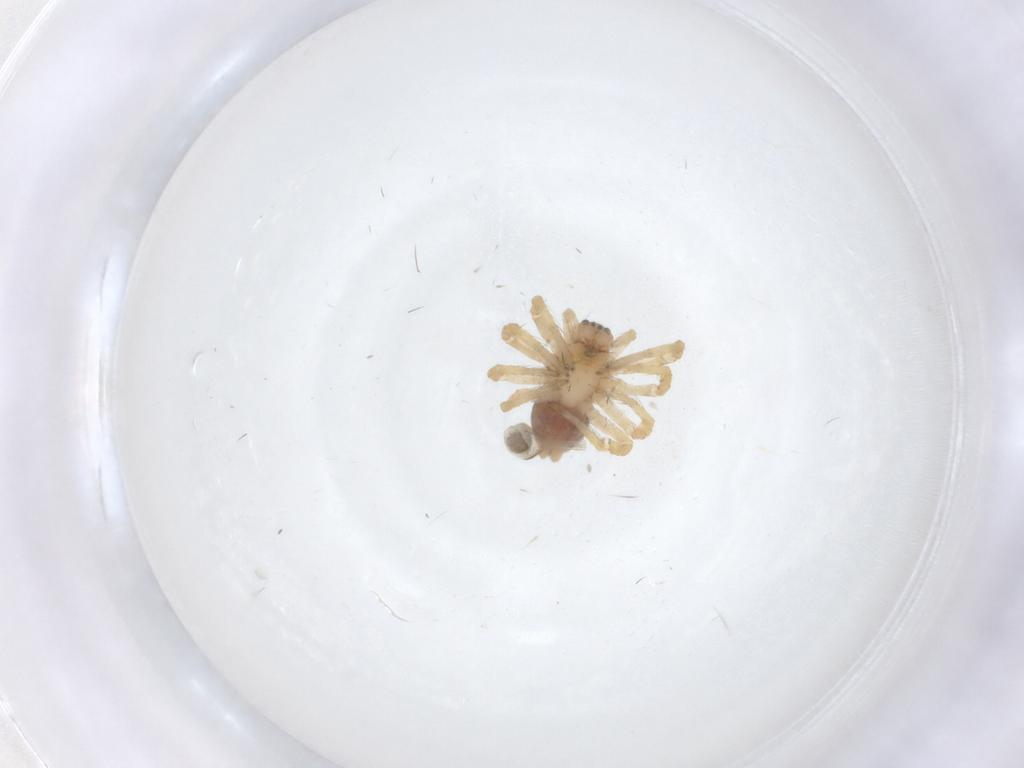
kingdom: Animalia
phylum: Arthropoda
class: Arachnida
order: Araneae
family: Desidae
